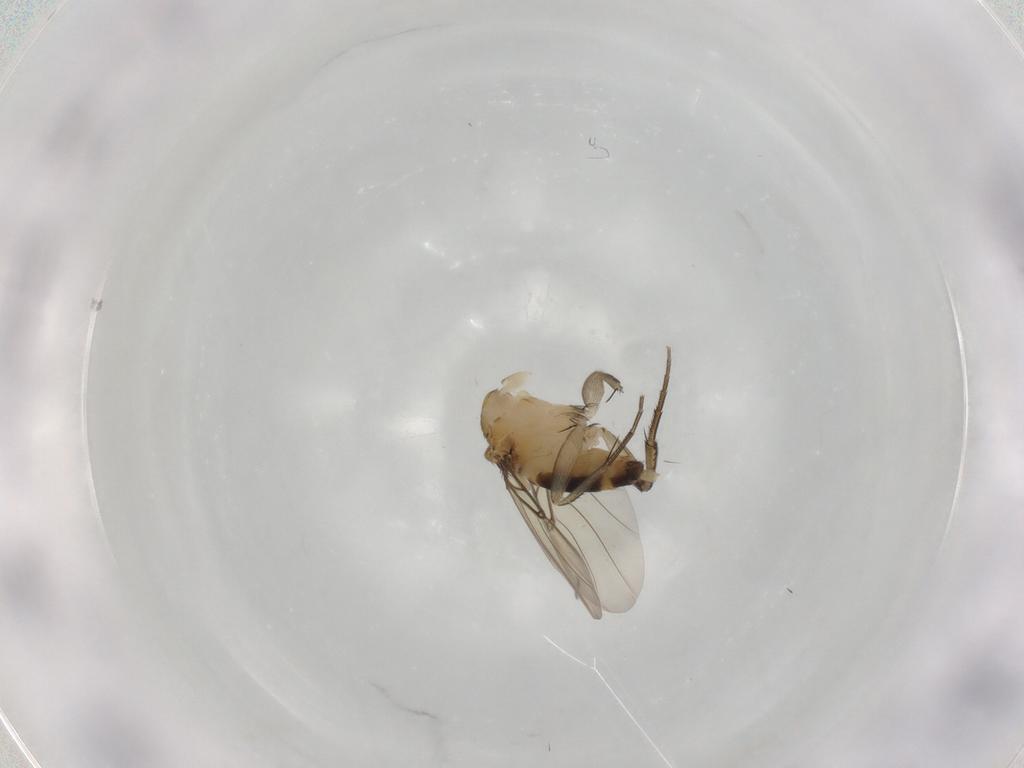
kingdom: Animalia
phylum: Arthropoda
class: Insecta
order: Diptera
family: Phoridae
